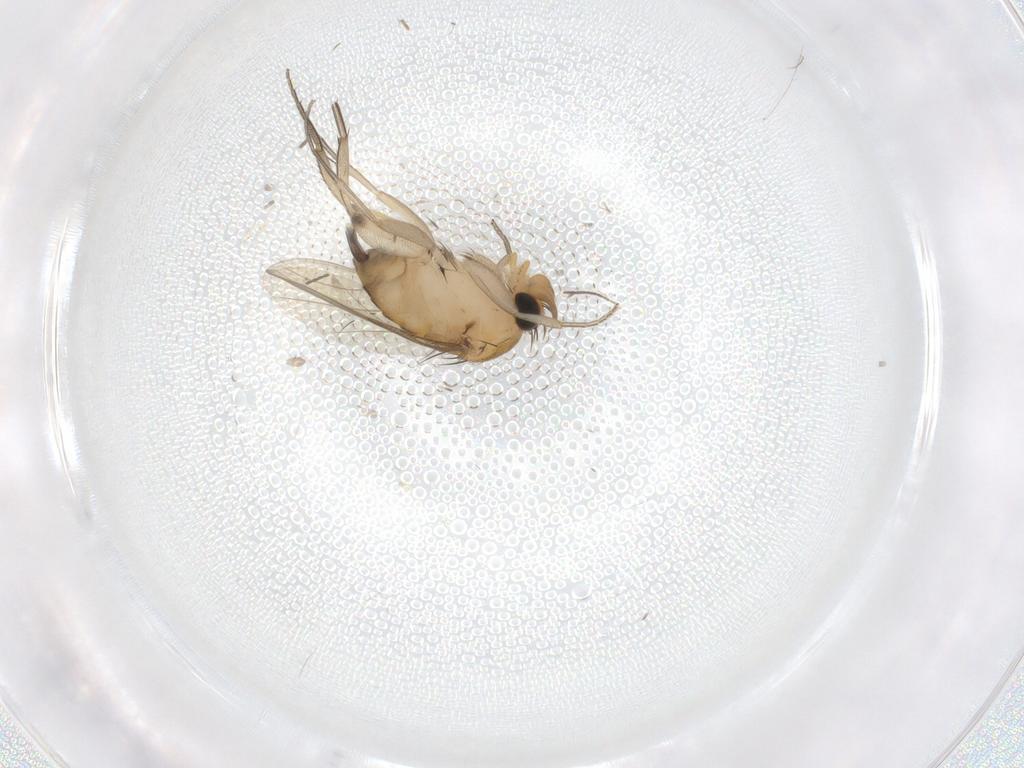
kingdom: Animalia
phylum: Arthropoda
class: Insecta
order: Diptera
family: Phoridae
